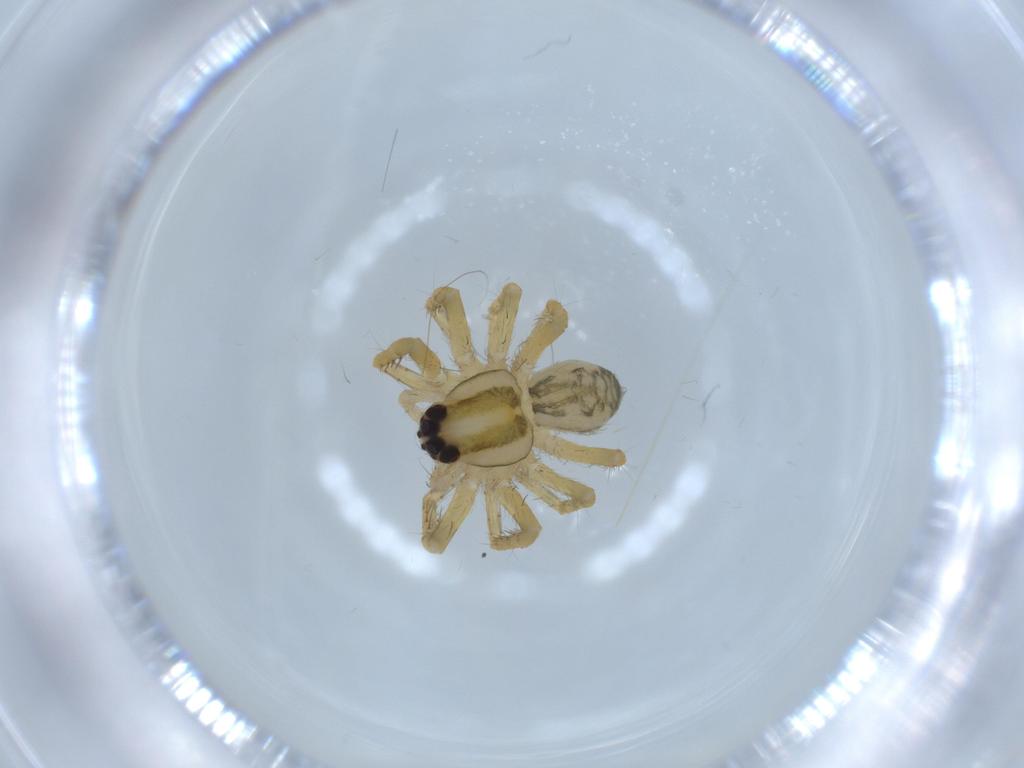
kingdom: Animalia
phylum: Arthropoda
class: Arachnida
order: Araneae
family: Ctenidae
